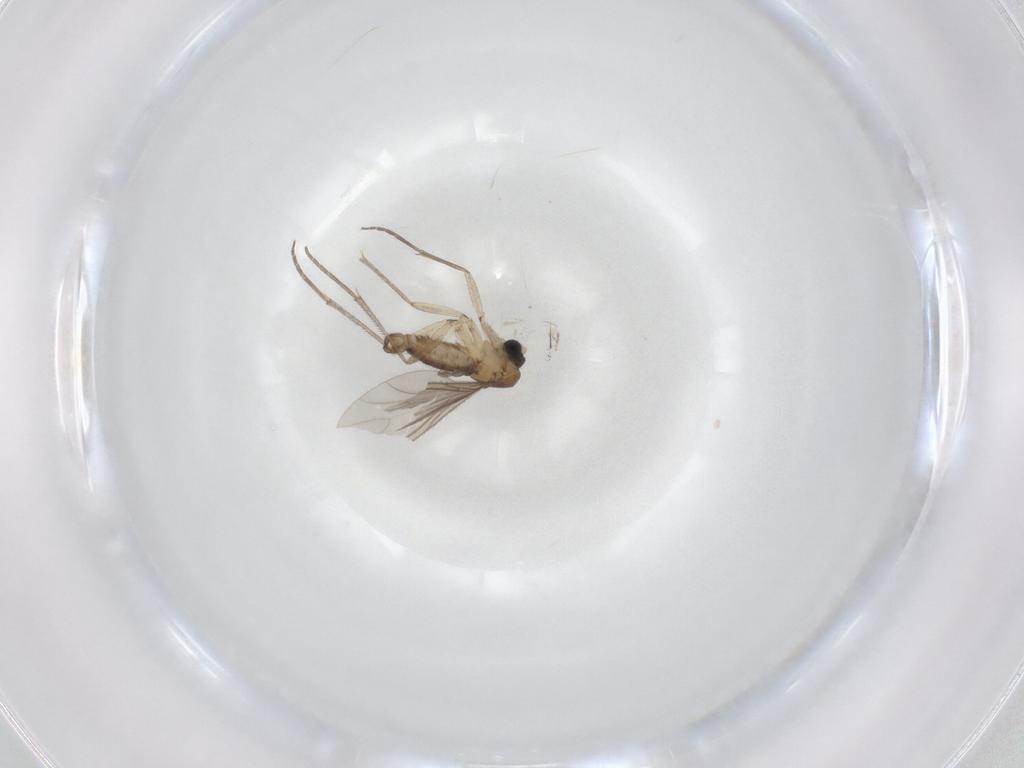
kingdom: Animalia
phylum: Arthropoda
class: Insecta
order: Diptera
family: Sciaridae
